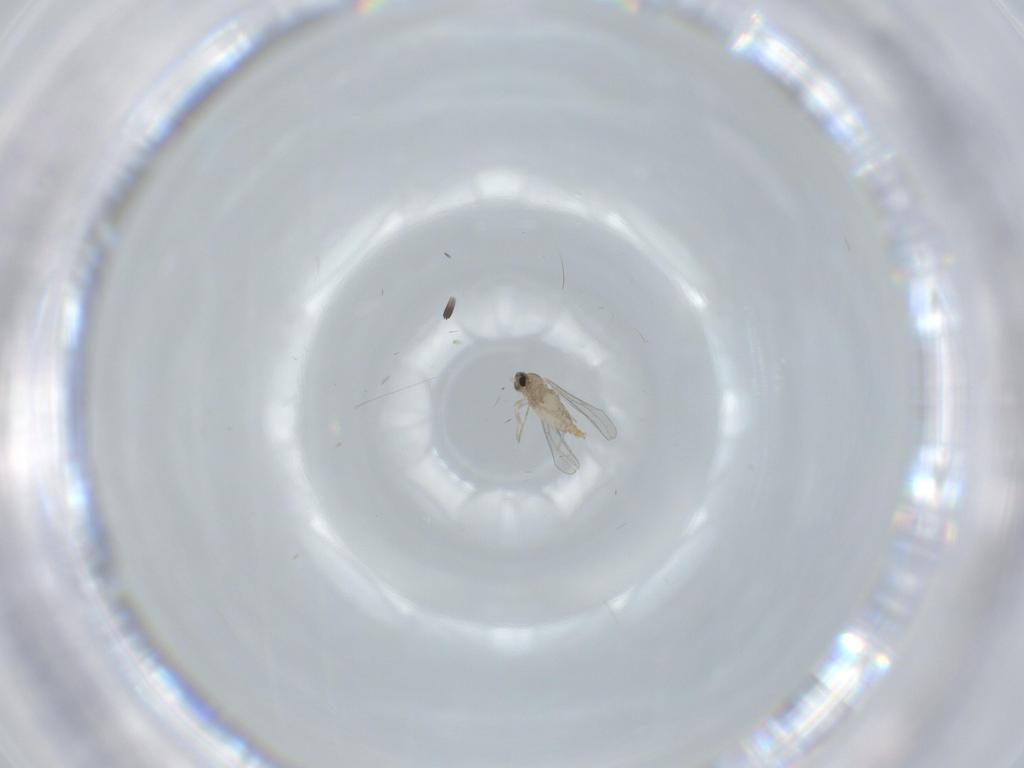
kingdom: Animalia
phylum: Arthropoda
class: Insecta
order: Diptera
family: Cecidomyiidae
